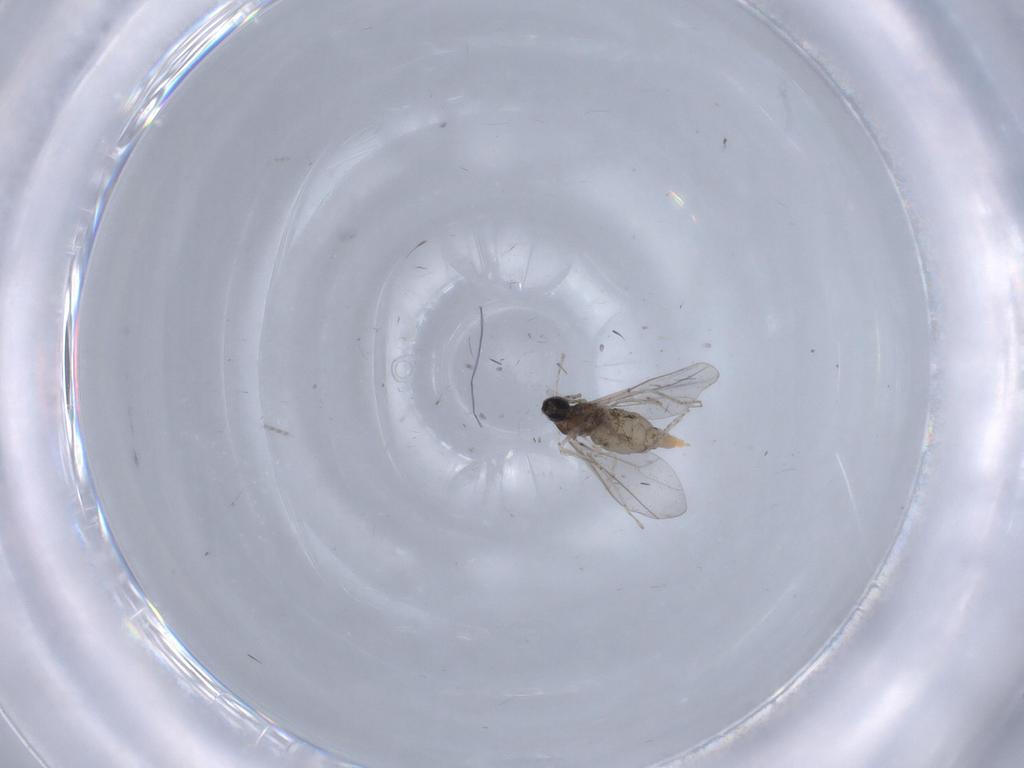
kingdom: Animalia
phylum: Arthropoda
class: Insecta
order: Diptera
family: Cecidomyiidae
